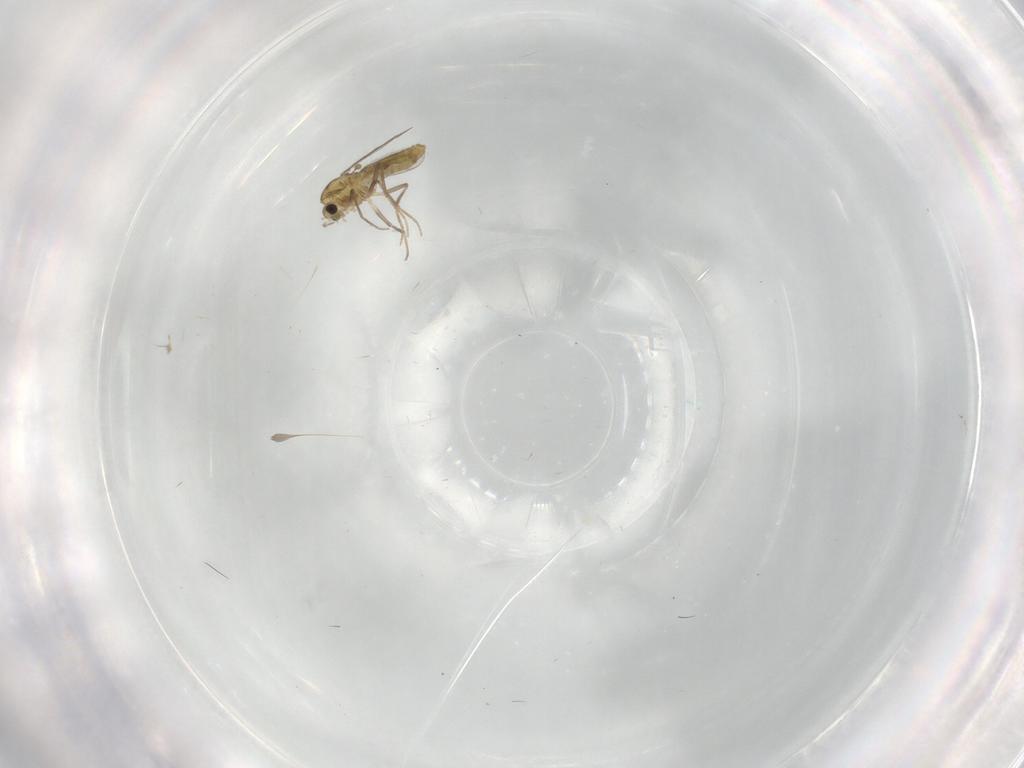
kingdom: Animalia
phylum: Arthropoda
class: Insecta
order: Diptera
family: Chironomidae
